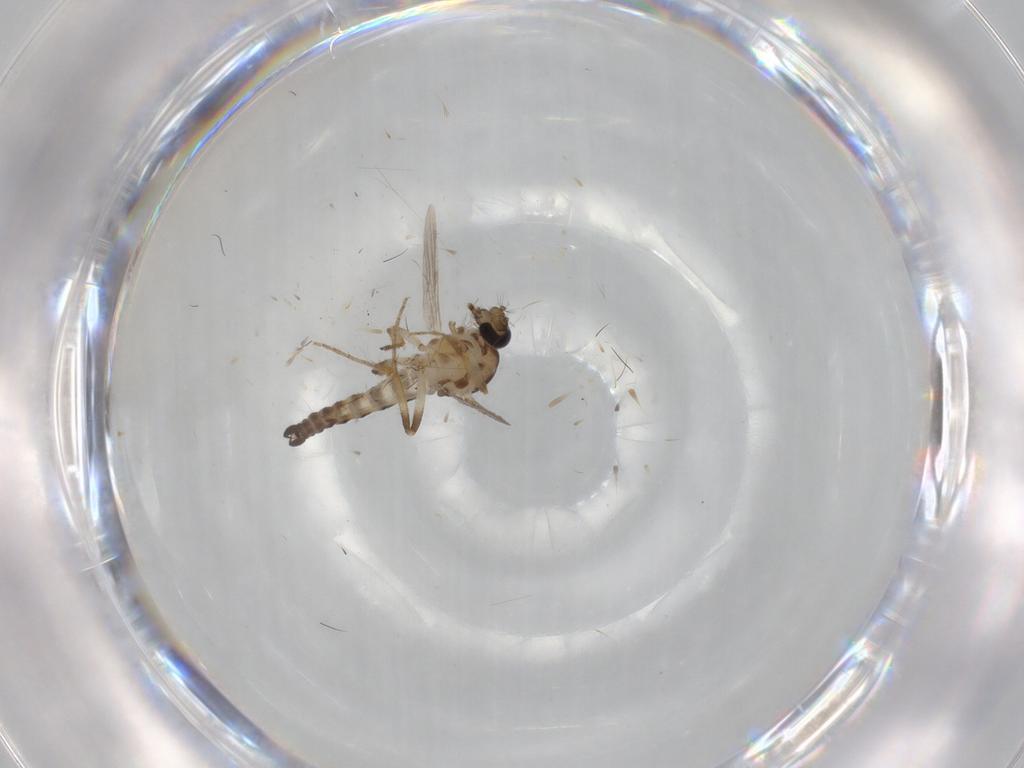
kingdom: Animalia
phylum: Arthropoda
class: Insecta
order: Diptera
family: Ceratopogonidae
